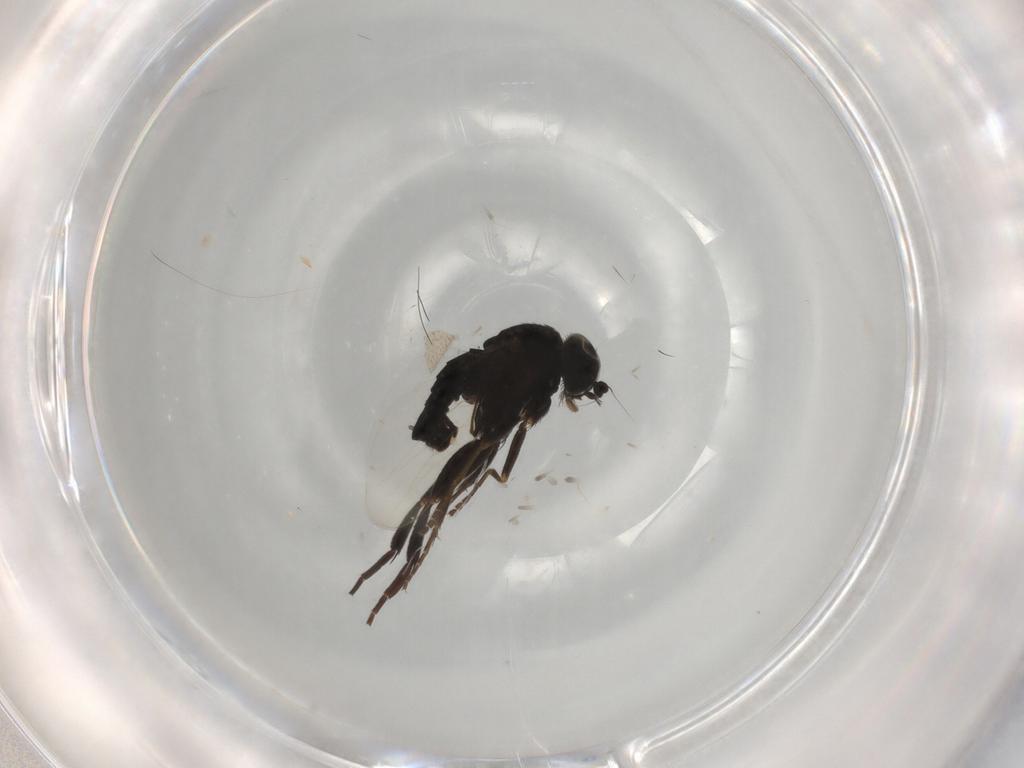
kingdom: Animalia
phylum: Arthropoda
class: Insecta
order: Diptera
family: Phoridae
